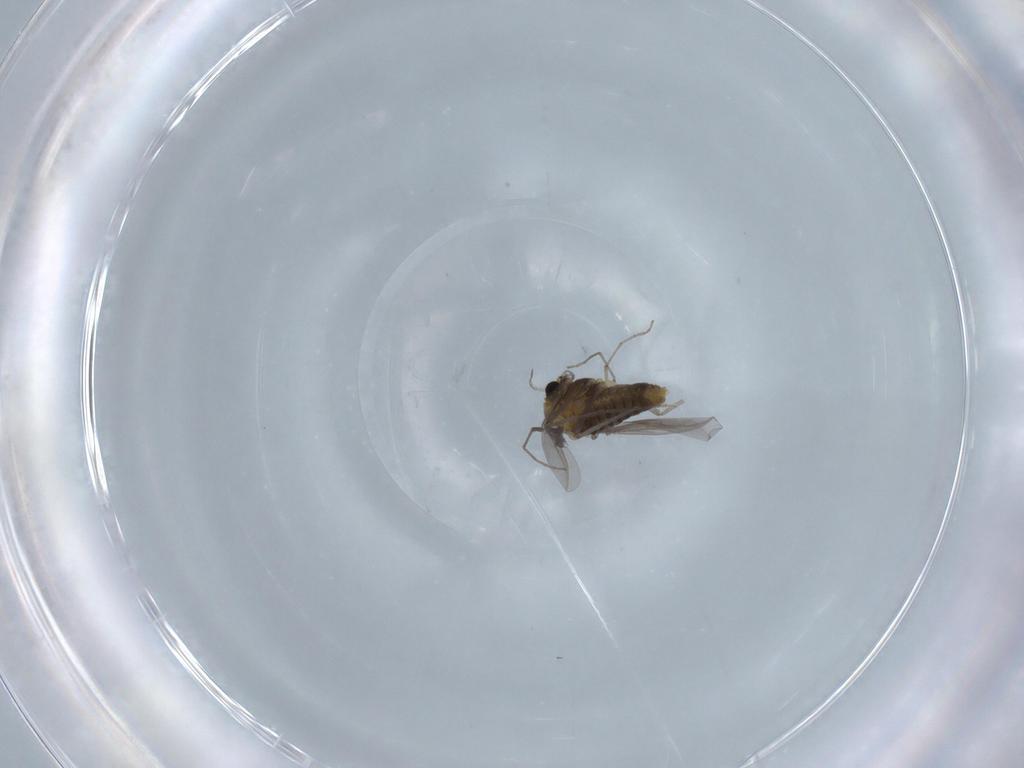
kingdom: Animalia
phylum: Arthropoda
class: Insecta
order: Diptera
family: Chironomidae
